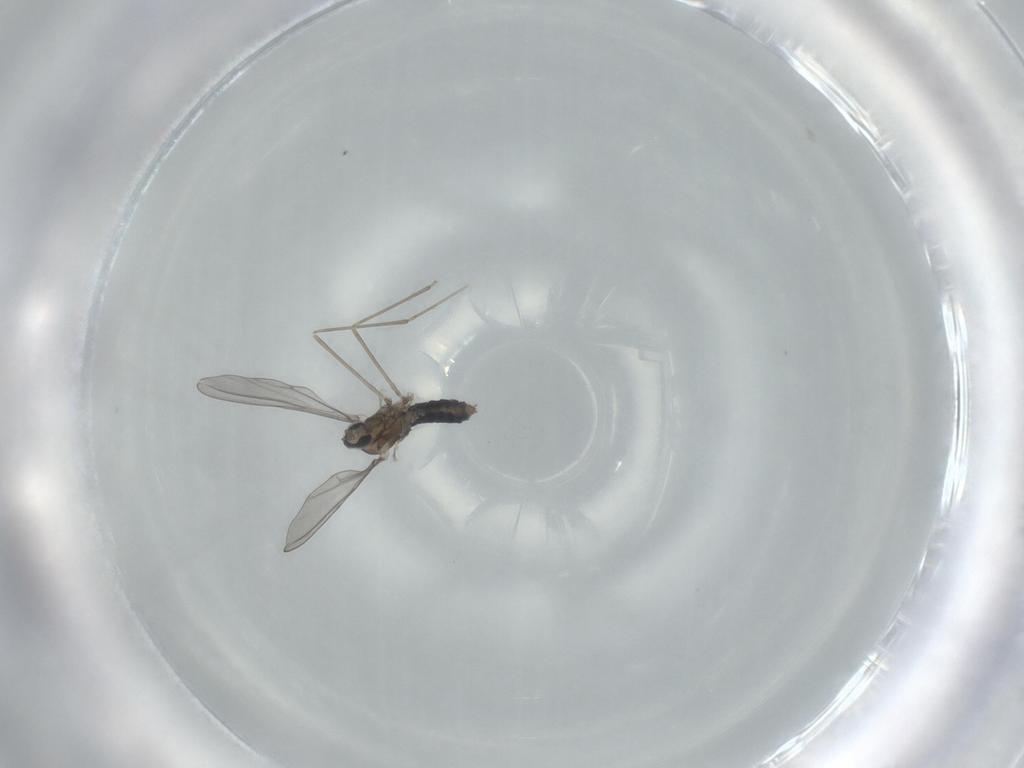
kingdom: Animalia
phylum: Arthropoda
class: Insecta
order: Diptera
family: Cecidomyiidae
